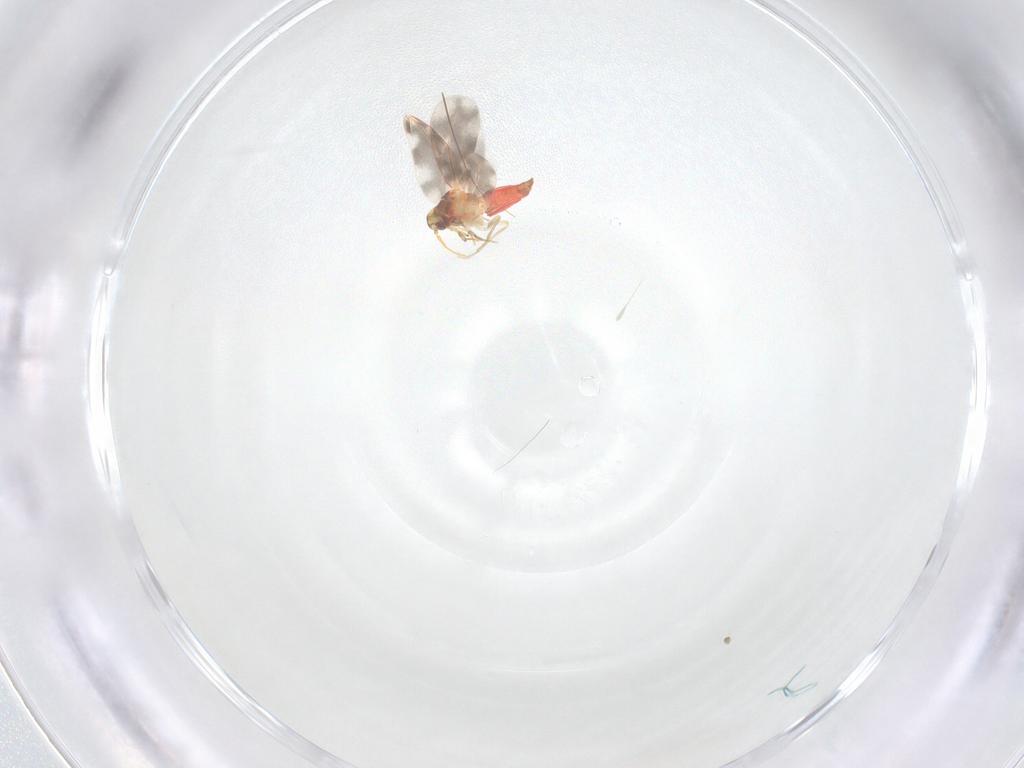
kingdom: Animalia
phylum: Arthropoda
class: Insecta
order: Hemiptera
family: Aleyrodidae
